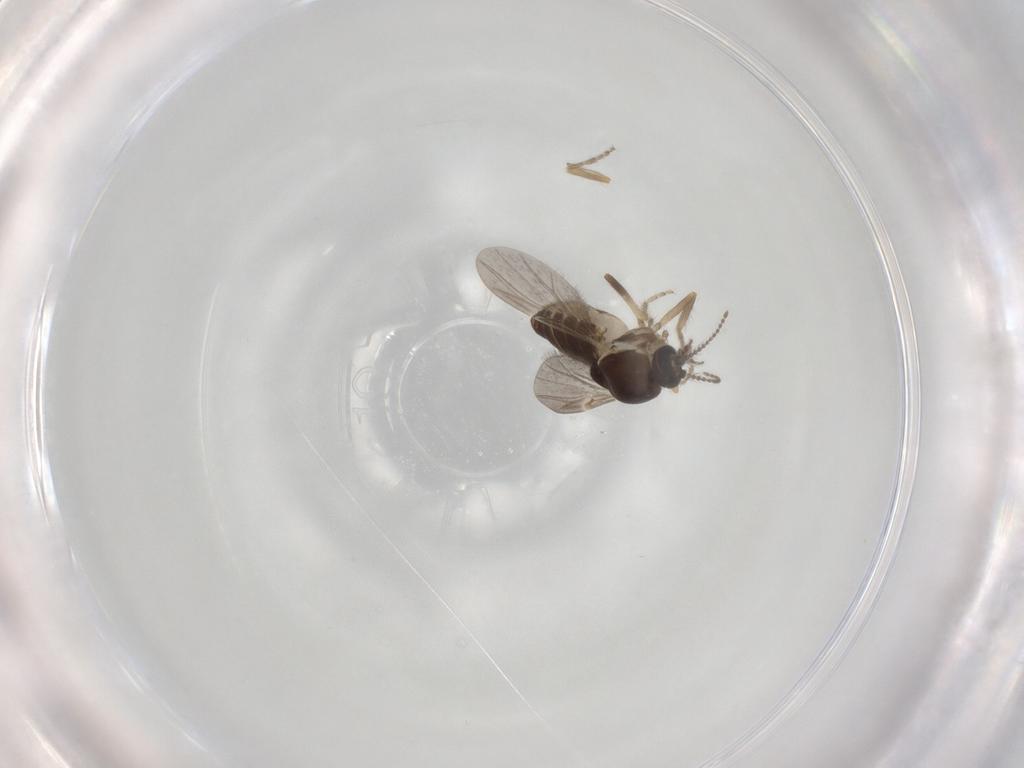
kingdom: Animalia
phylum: Arthropoda
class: Insecta
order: Diptera
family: Ceratopogonidae
